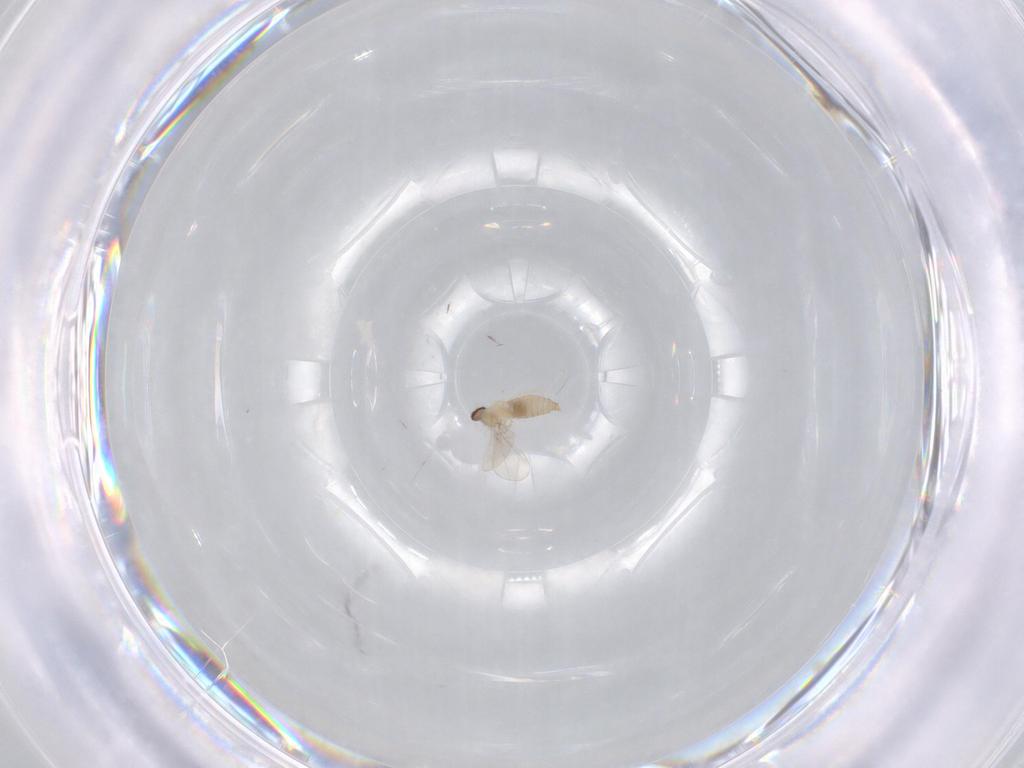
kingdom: Animalia
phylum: Arthropoda
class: Insecta
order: Diptera
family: Cecidomyiidae
